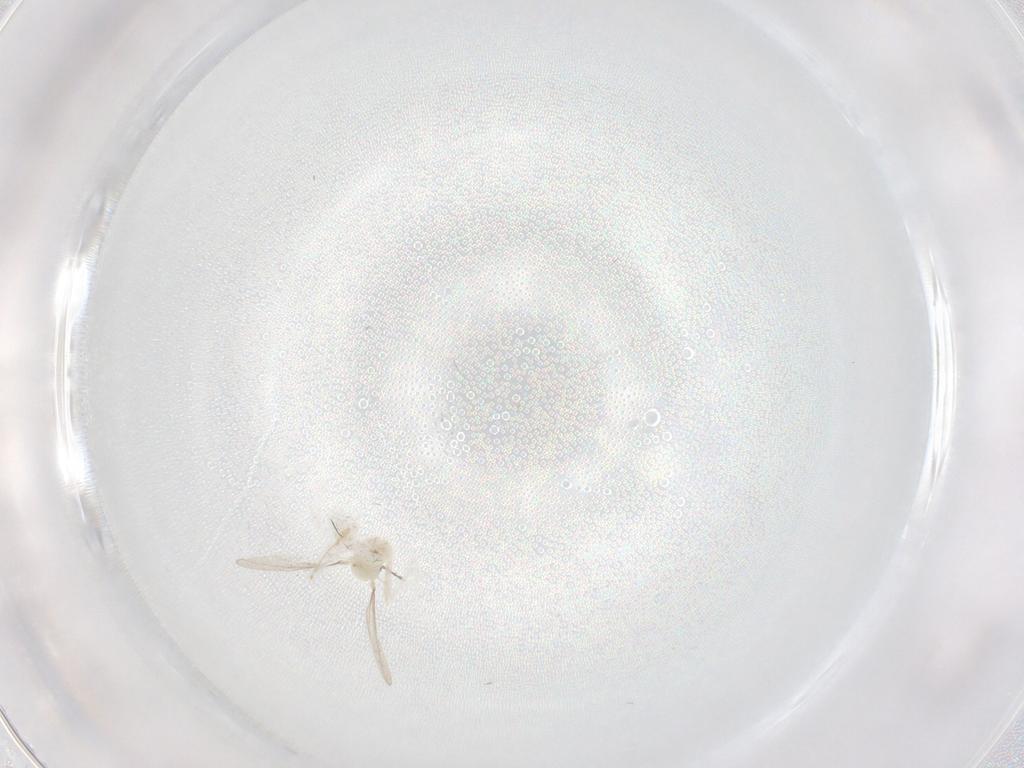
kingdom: Animalia
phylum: Arthropoda
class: Insecta
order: Diptera
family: Cecidomyiidae
